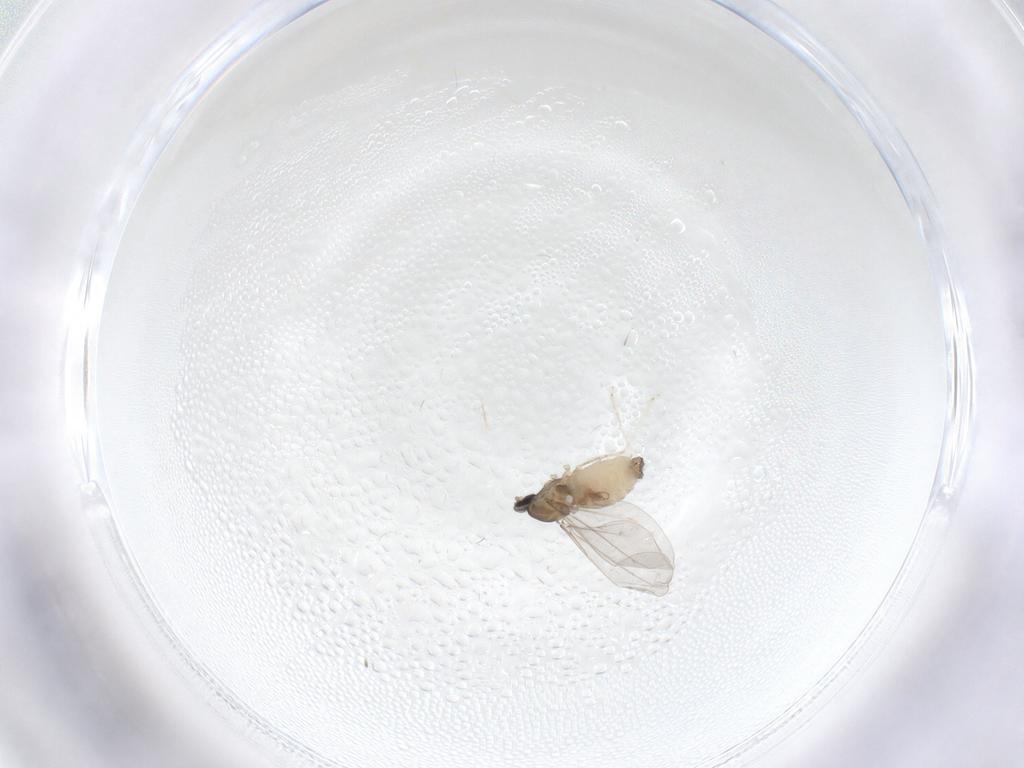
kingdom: Animalia
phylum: Arthropoda
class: Insecta
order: Diptera
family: Cecidomyiidae
